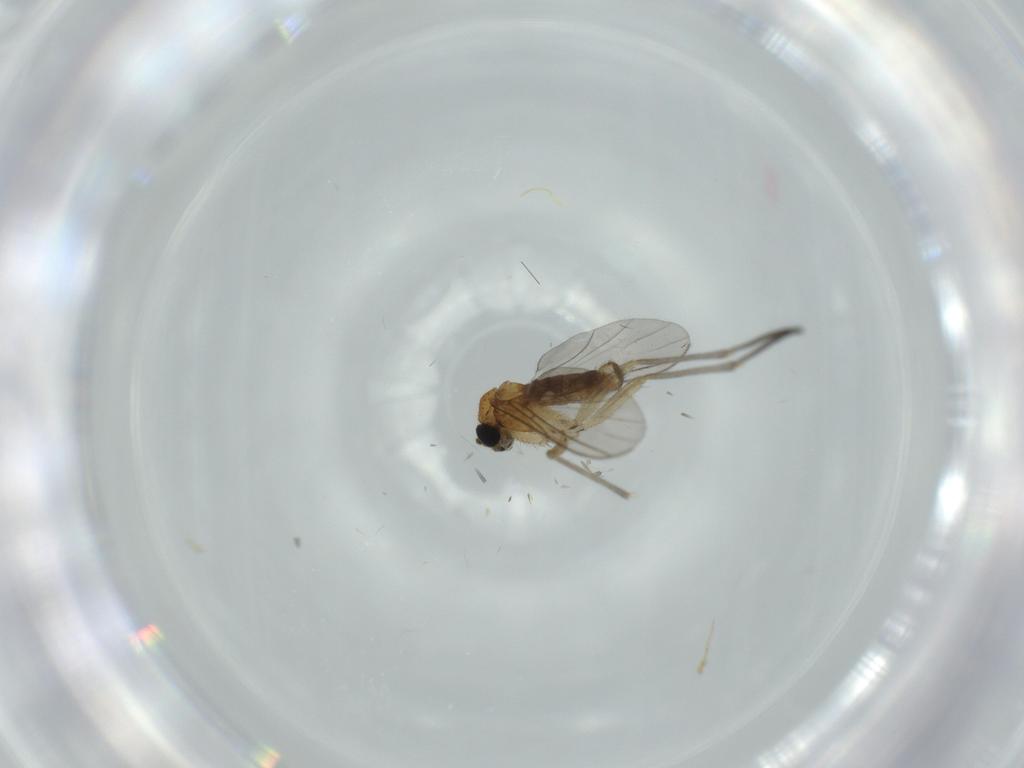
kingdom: Animalia
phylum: Arthropoda
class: Insecta
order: Diptera
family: Sciaridae
